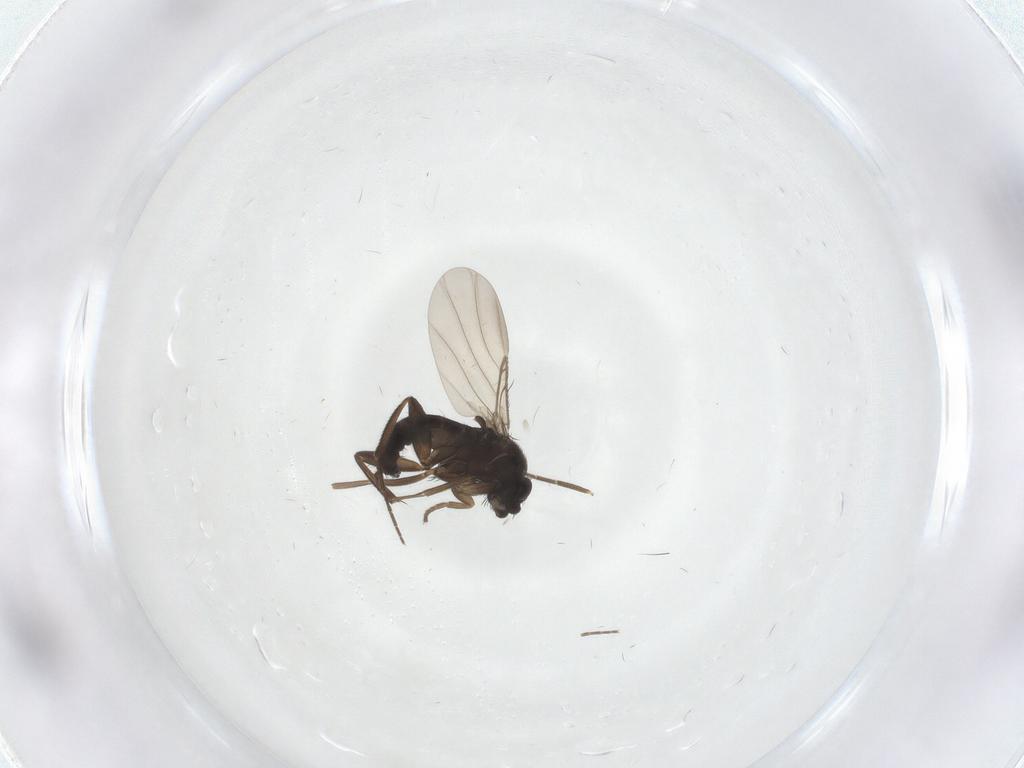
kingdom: Animalia
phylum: Arthropoda
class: Insecta
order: Diptera
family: Phoridae
